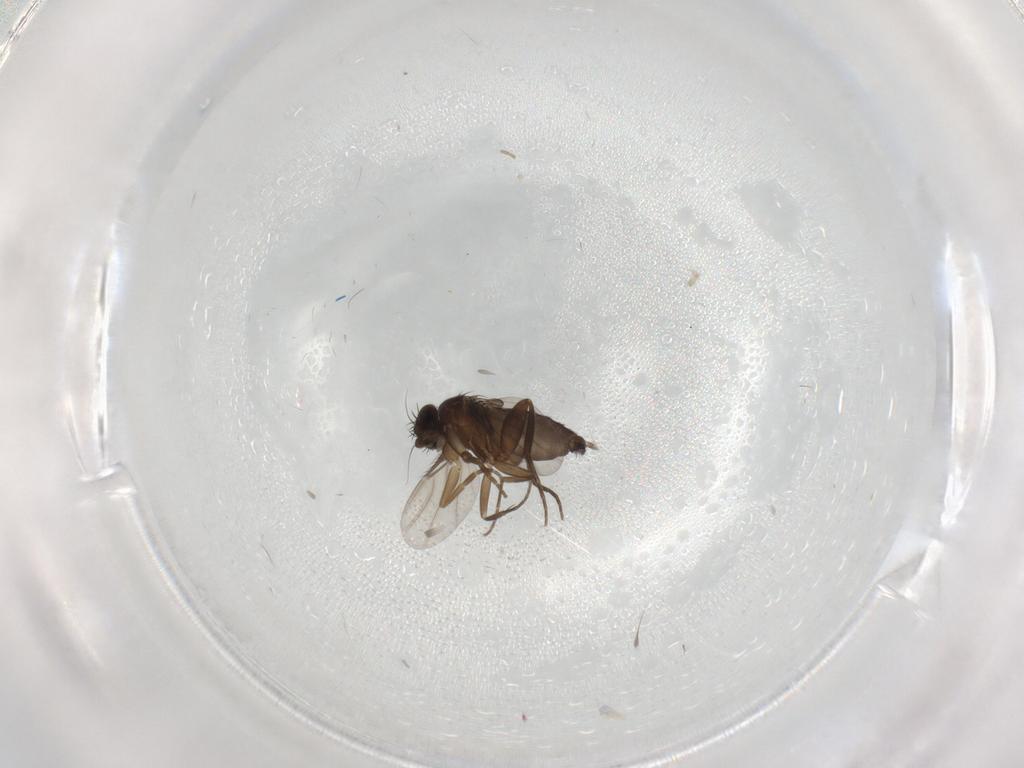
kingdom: Animalia
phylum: Arthropoda
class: Insecta
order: Diptera
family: Phoridae
